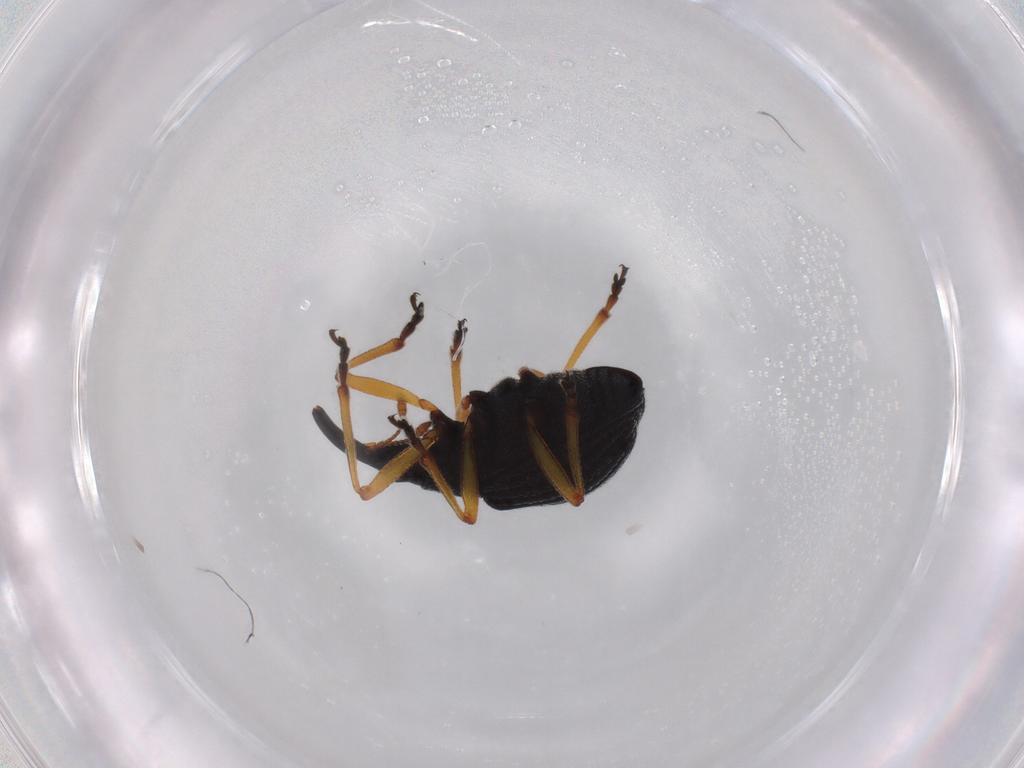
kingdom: Animalia
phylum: Arthropoda
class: Insecta
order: Coleoptera
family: Brentidae
